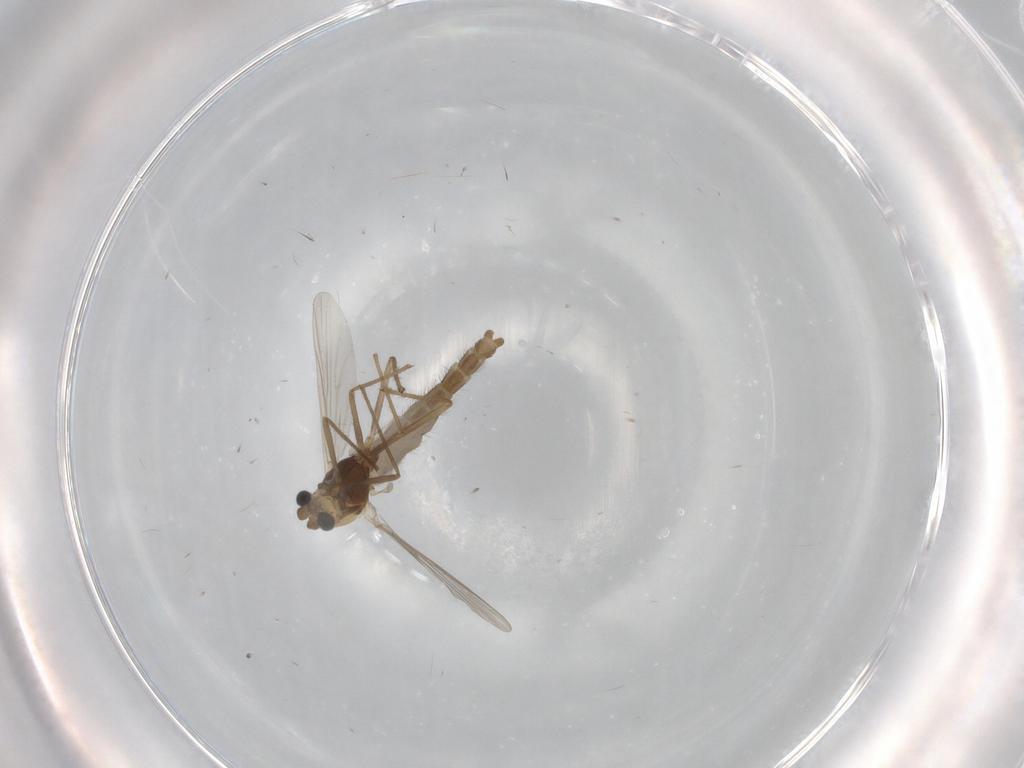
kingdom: Animalia
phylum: Arthropoda
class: Insecta
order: Diptera
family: Chironomidae
